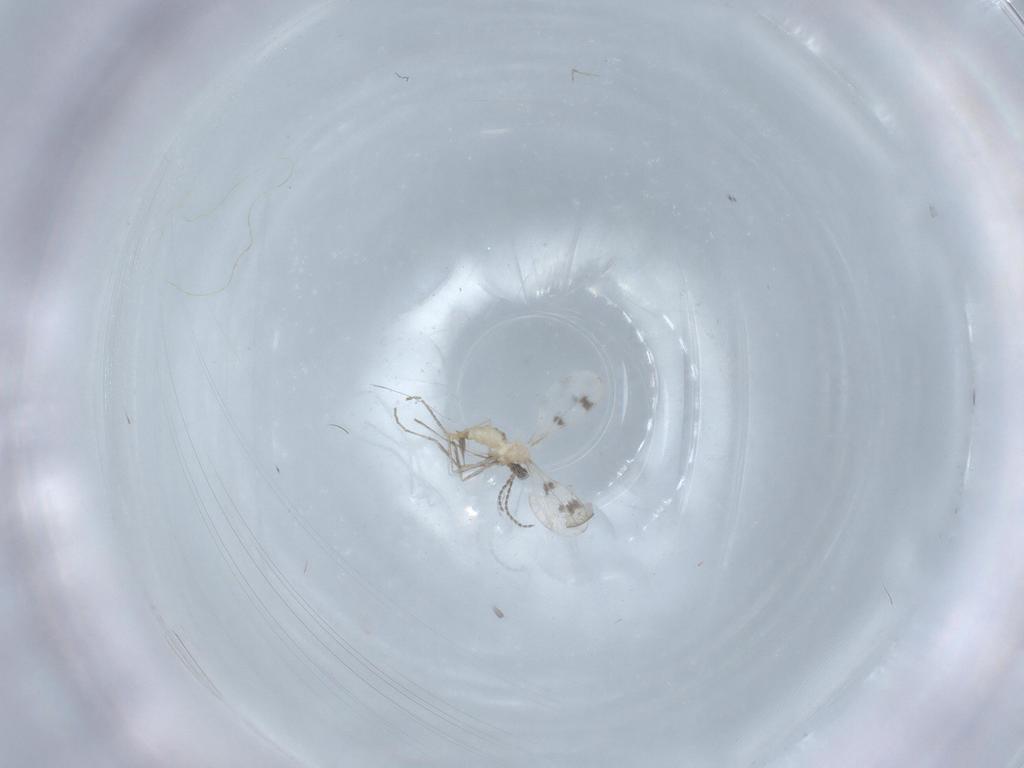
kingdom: Animalia
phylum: Arthropoda
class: Insecta
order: Diptera
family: Cecidomyiidae
